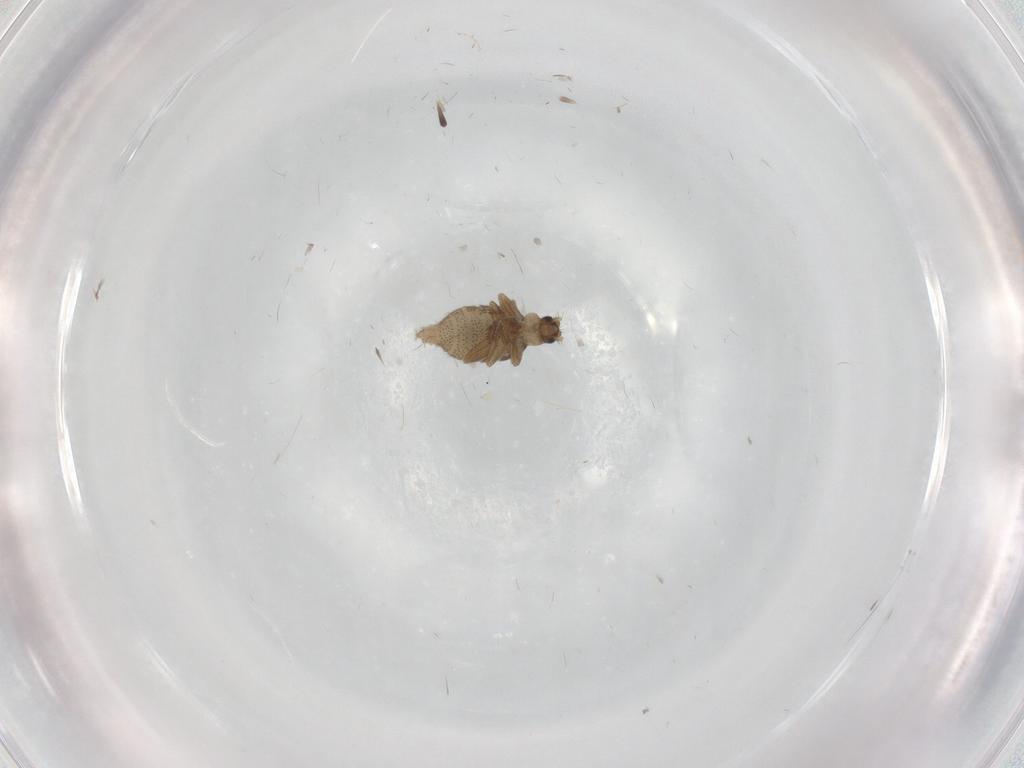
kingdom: Animalia
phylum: Arthropoda
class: Insecta
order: Diptera
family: Cecidomyiidae
